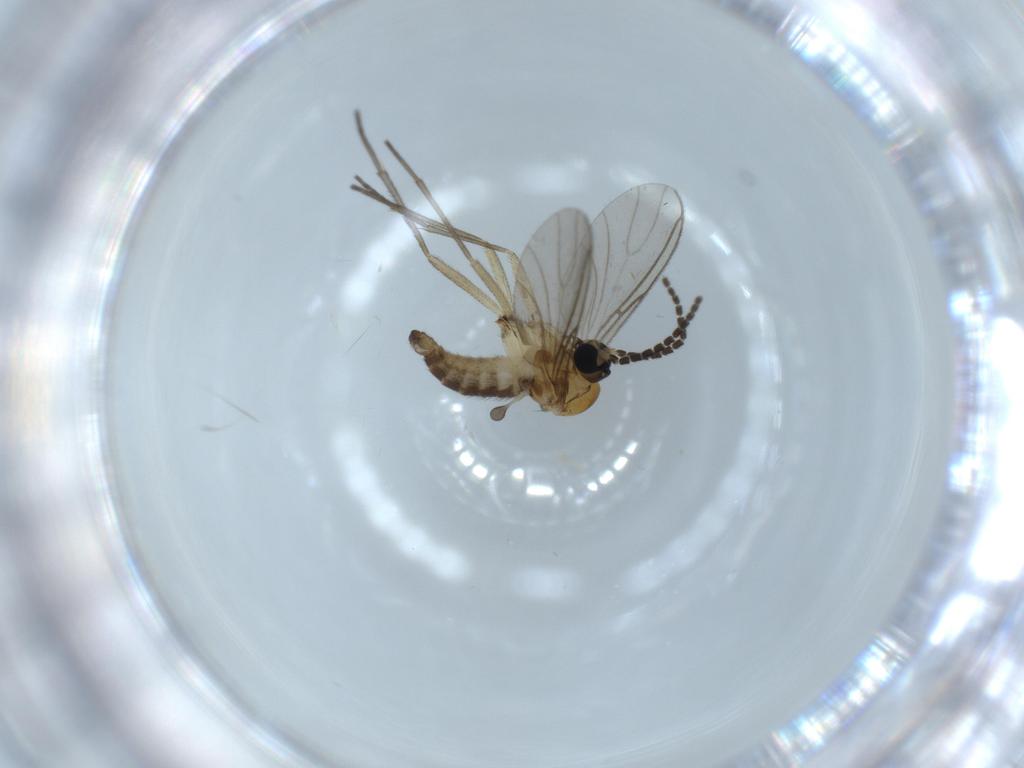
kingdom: Animalia
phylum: Arthropoda
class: Insecta
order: Diptera
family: Sciaridae
